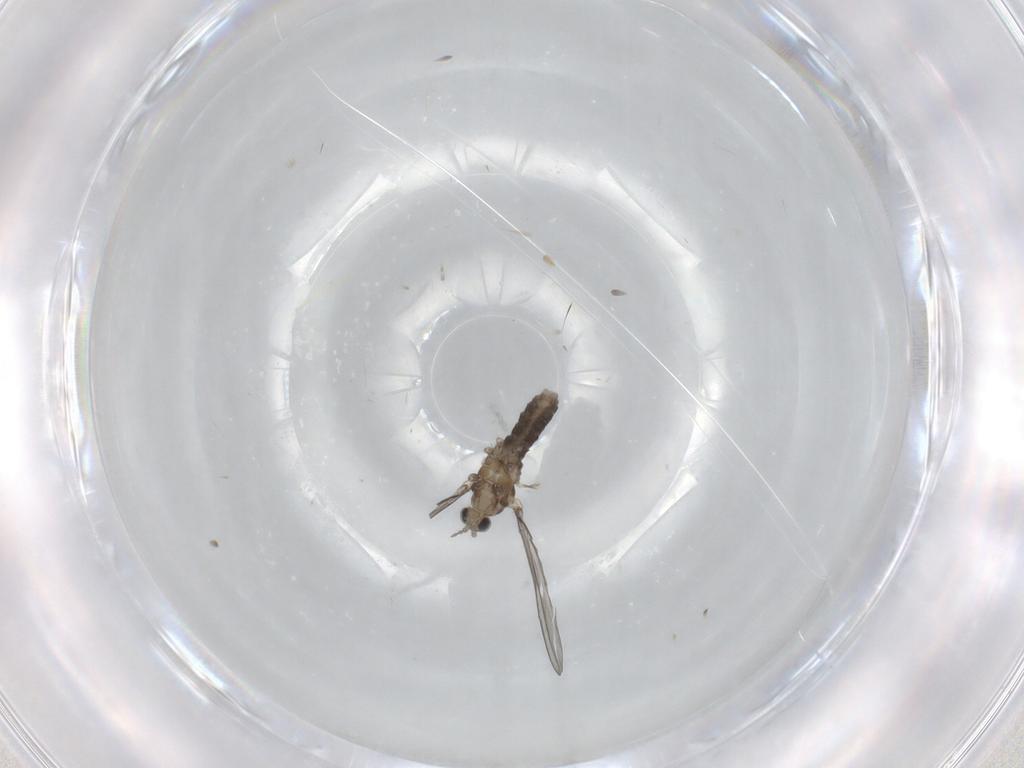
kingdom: Animalia
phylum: Arthropoda
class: Insecta
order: Diptera
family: Cecidomyiidae
